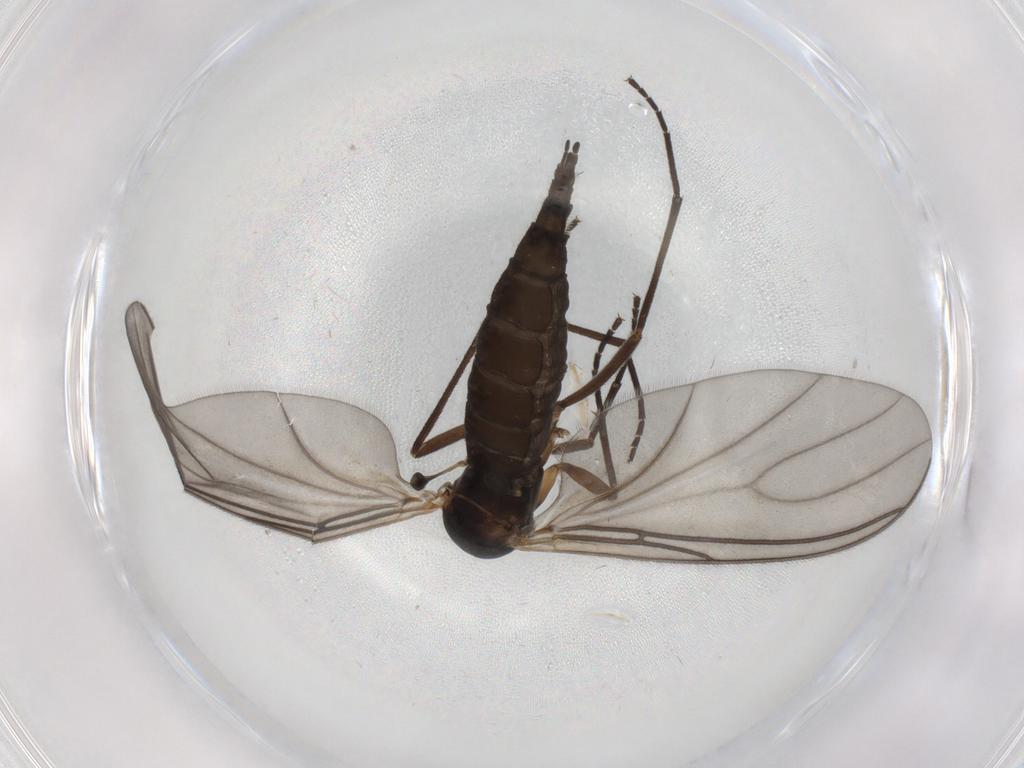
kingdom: Animalia
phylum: Arthropoda
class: Insecta
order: Diptera
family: Sciaridae
